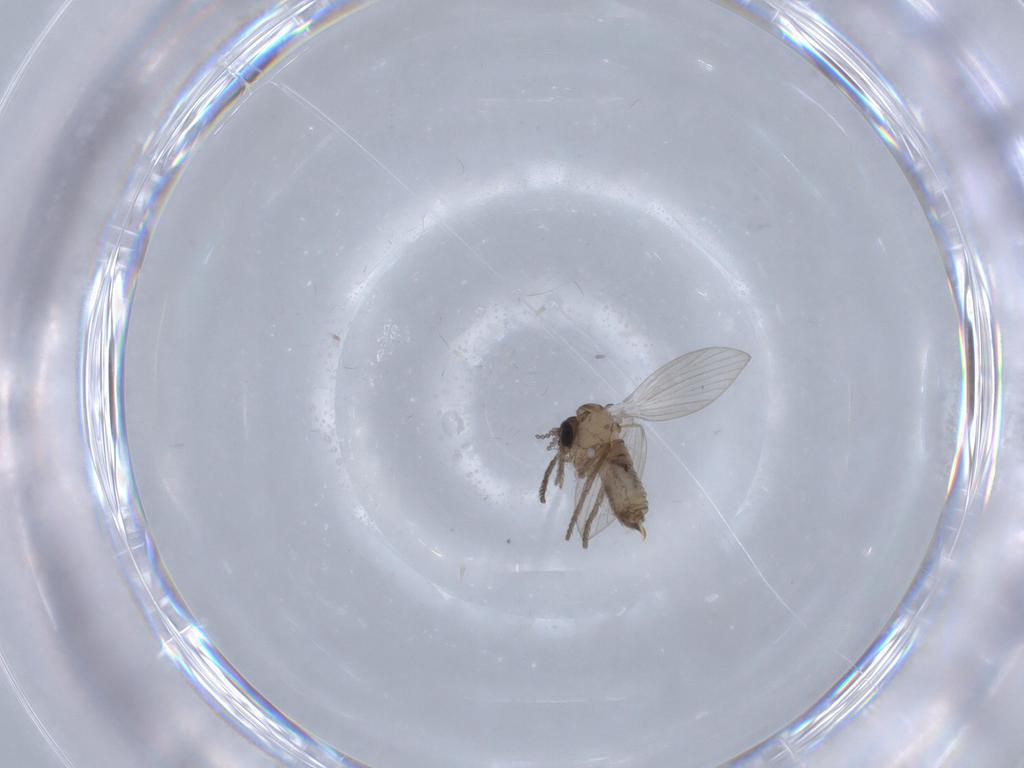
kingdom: Animalia
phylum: Arthropoda
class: Insecta
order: Diptera
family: Psychodidae
